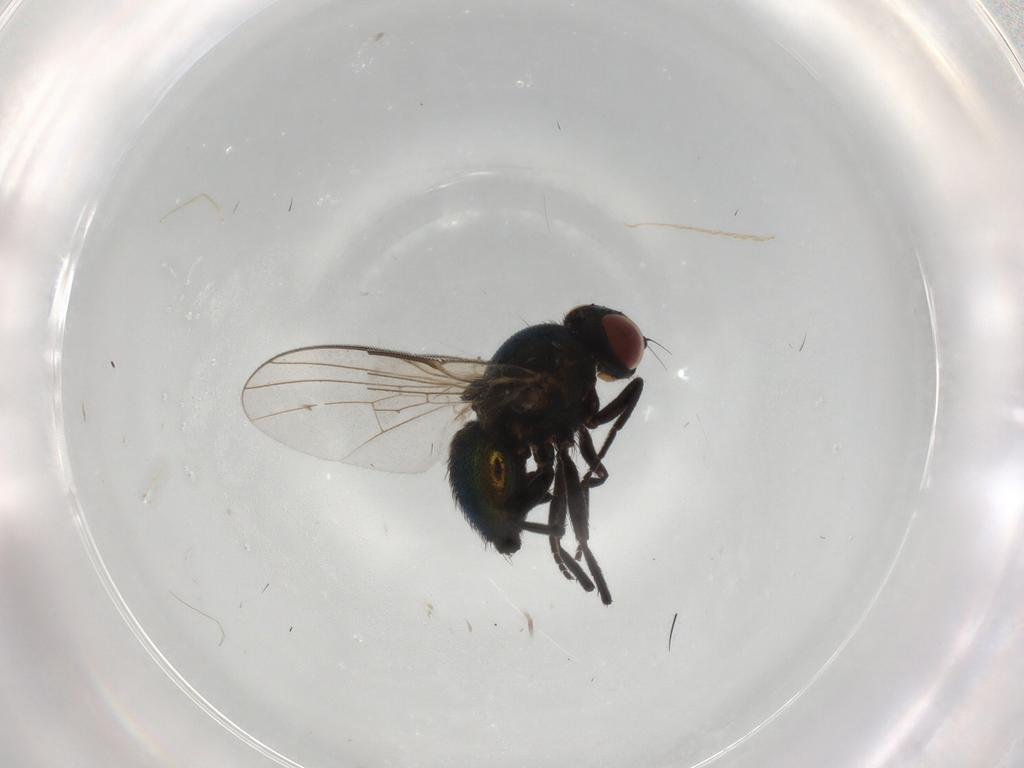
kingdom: Animalia
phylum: Arthropoda
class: Insecta
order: Diptera
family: Agromyzidae
